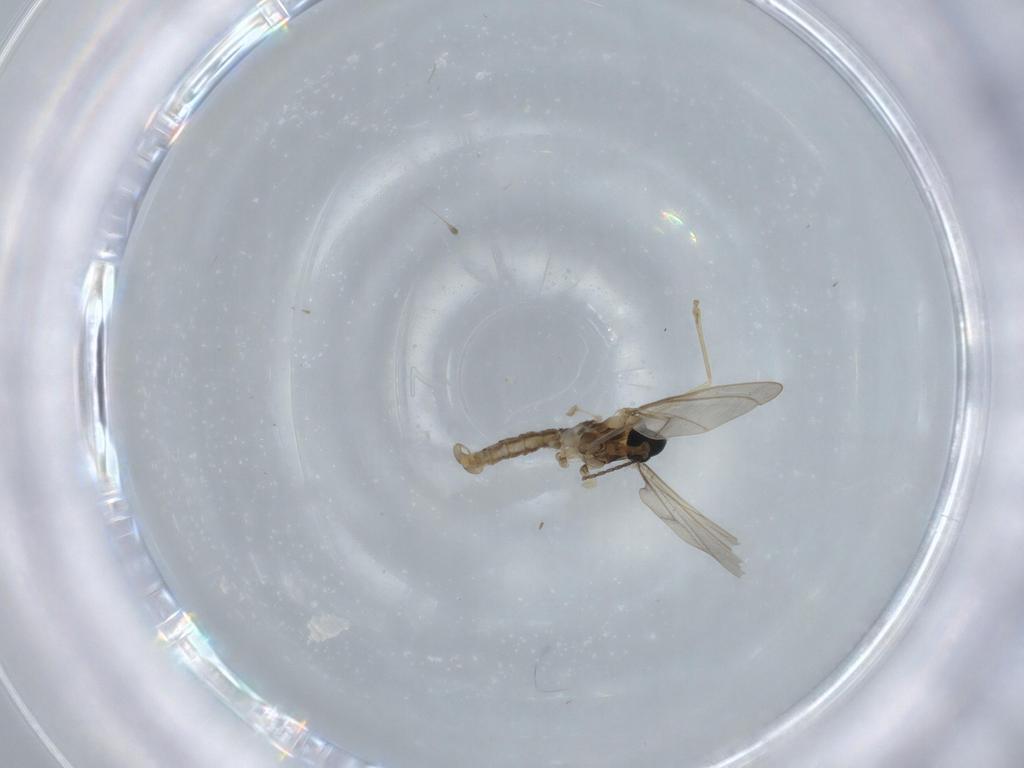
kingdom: Animalia
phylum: Arthropoda
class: Insecta
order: Diptera
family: Cecidomyiidae
